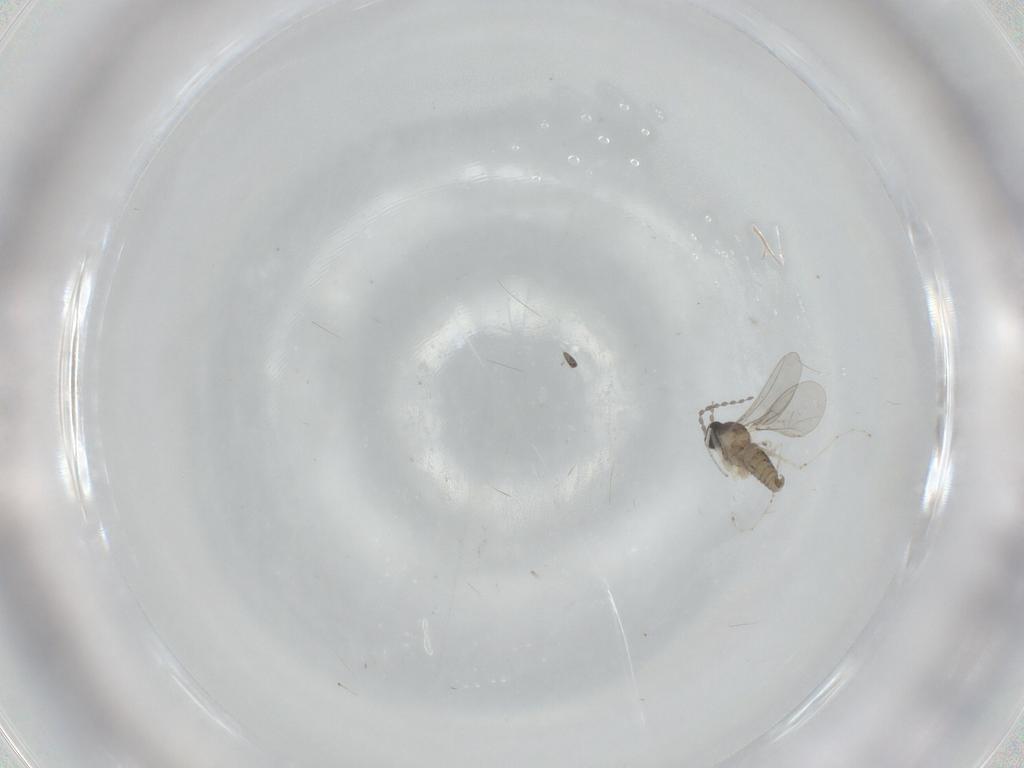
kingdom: Animalia
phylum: Arthropoda
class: Insecta
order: Diptera
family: Cecidomyiidae
